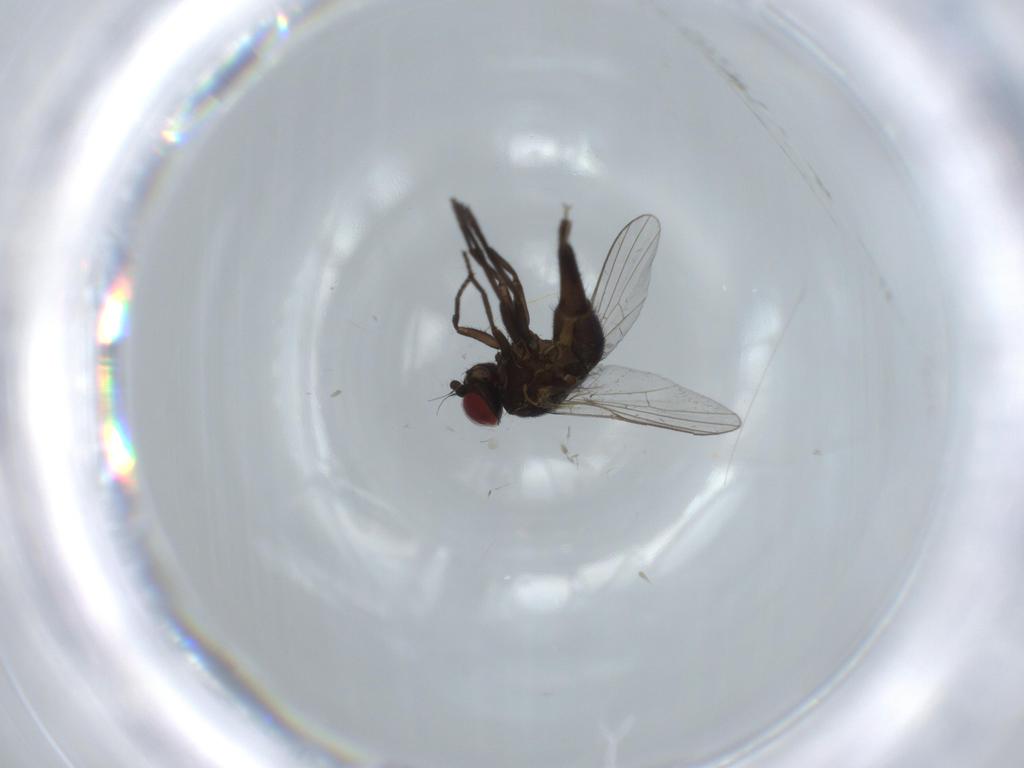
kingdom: Animalia
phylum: Arthropoda
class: Insecta
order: Diptera
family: Agromyzidae
